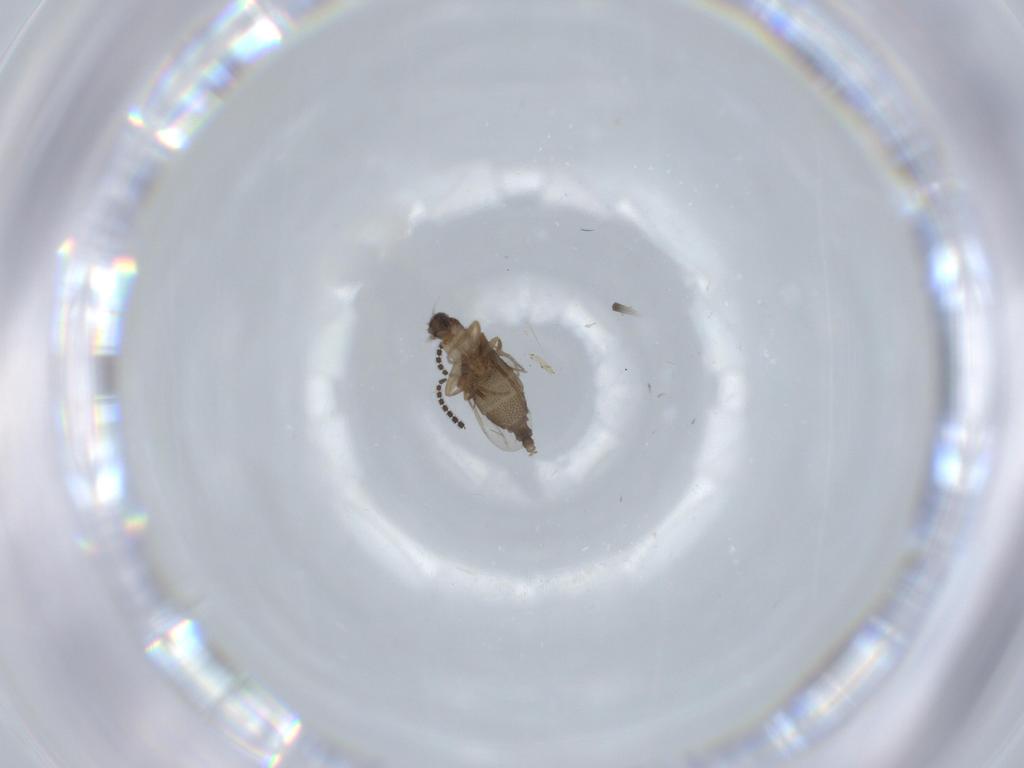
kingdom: Animalia
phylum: Arthropoda
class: Insecta
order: Diptera
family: Phoridae
